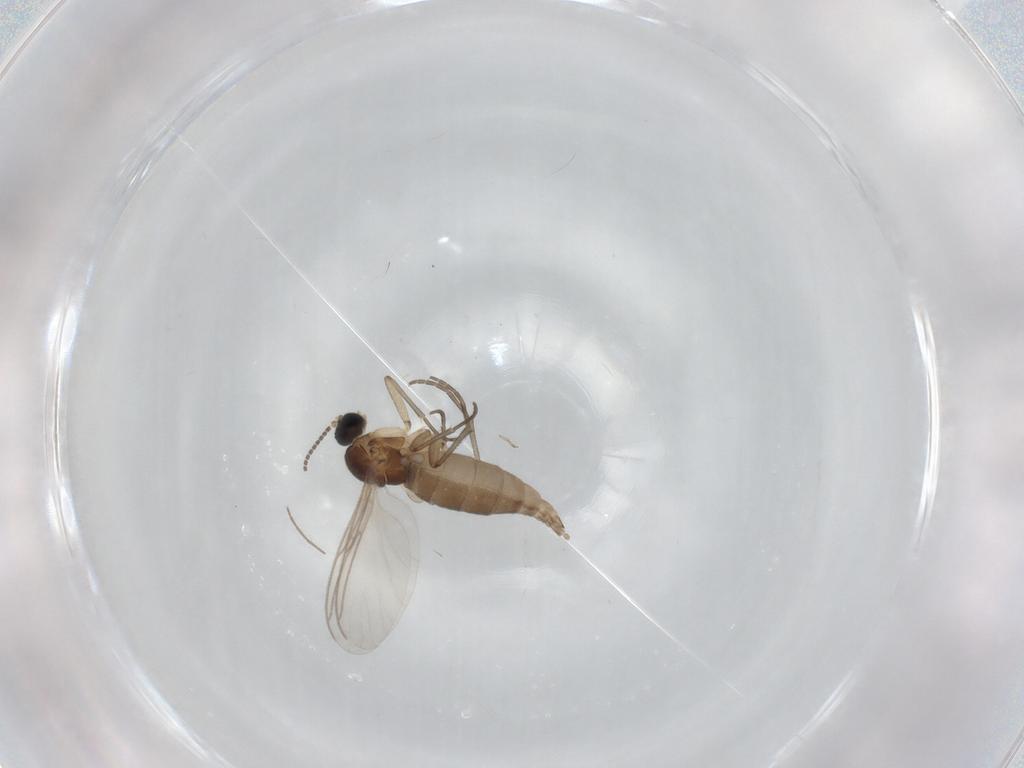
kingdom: Animalia
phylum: Arthropoda
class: Insecta
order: Diptera
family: Sciaridae
